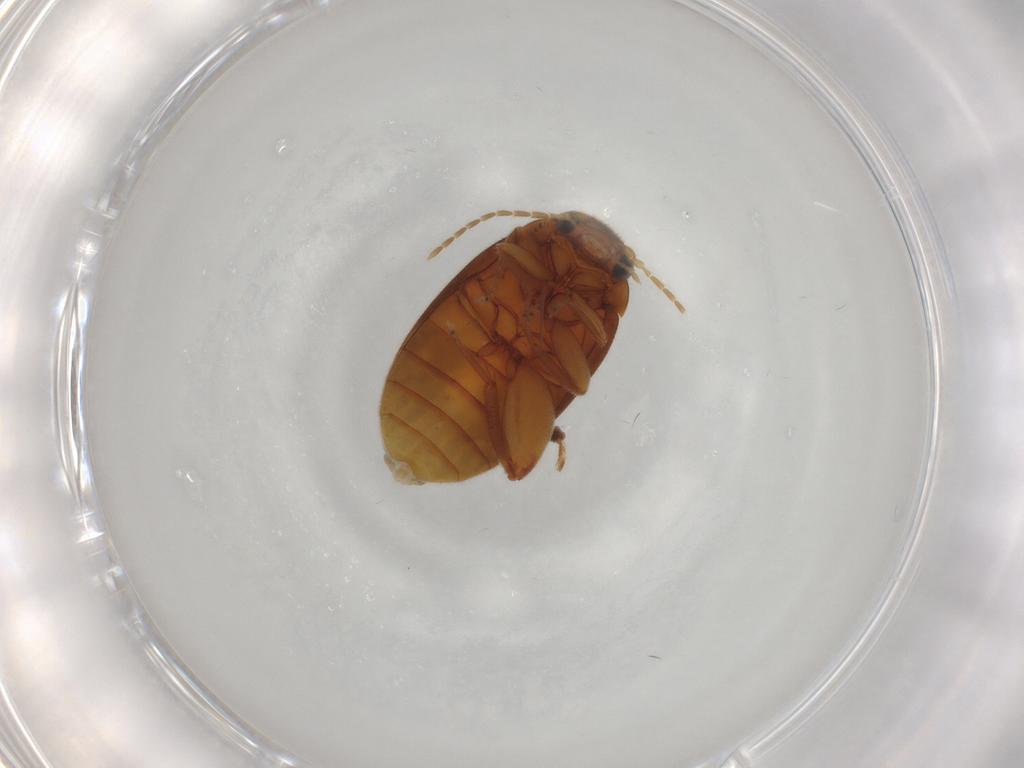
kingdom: Animalia
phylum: Arthropoda
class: Insecta
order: Coleoptera
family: Scirtidae
